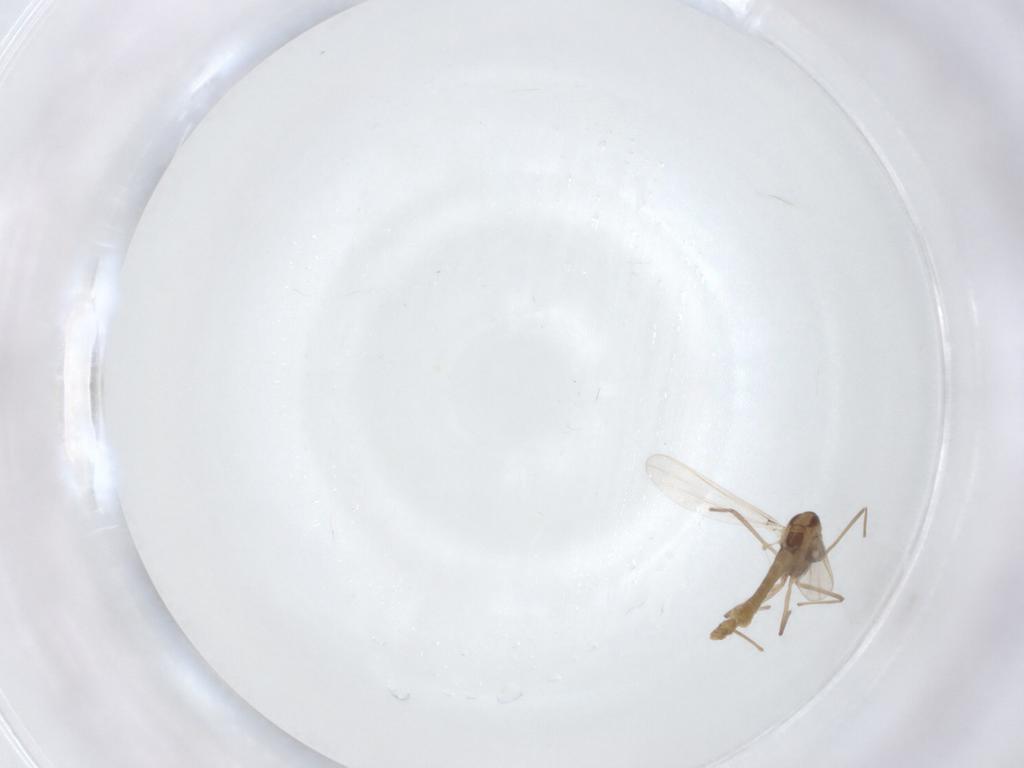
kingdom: Animalia
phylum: Arthropoda
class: Insecta
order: Diptera
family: Chironomidae
